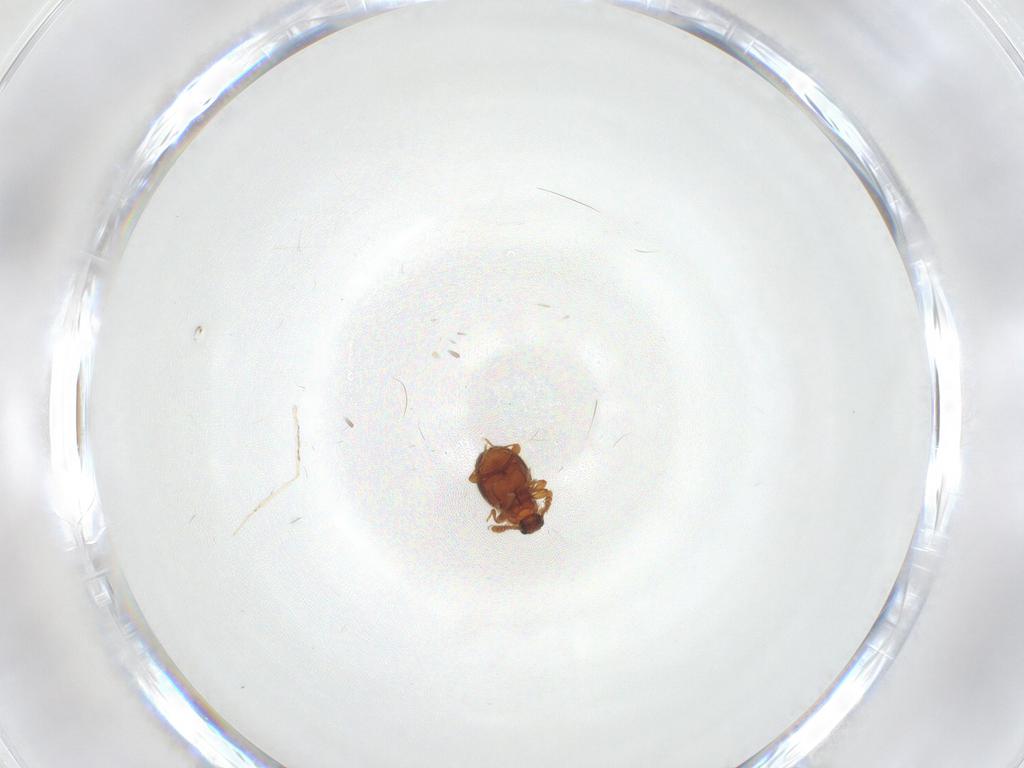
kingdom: Animalia
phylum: Arthropoda
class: Insecta
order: Coleoptera
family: Staphylinidae
